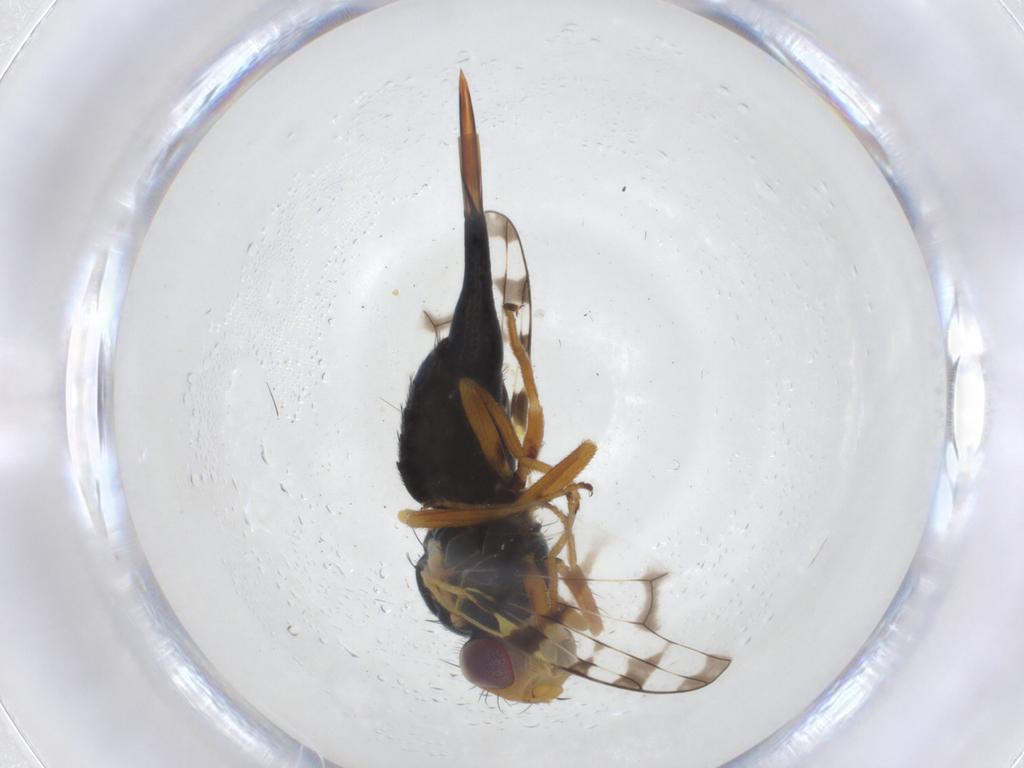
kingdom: Animalia
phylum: Arthropoda
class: Insecta
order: Diptera
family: Tephritidae
